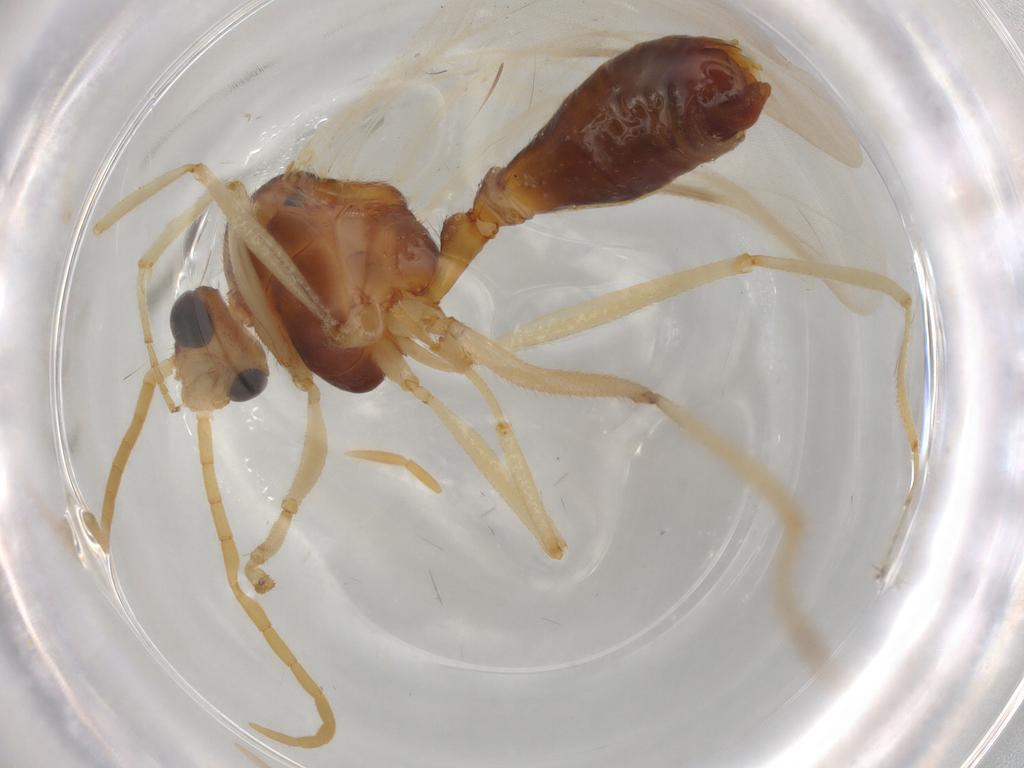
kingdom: Animalia
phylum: Arthropoda
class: Insecta
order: Hymenoptera
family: Formicidae
